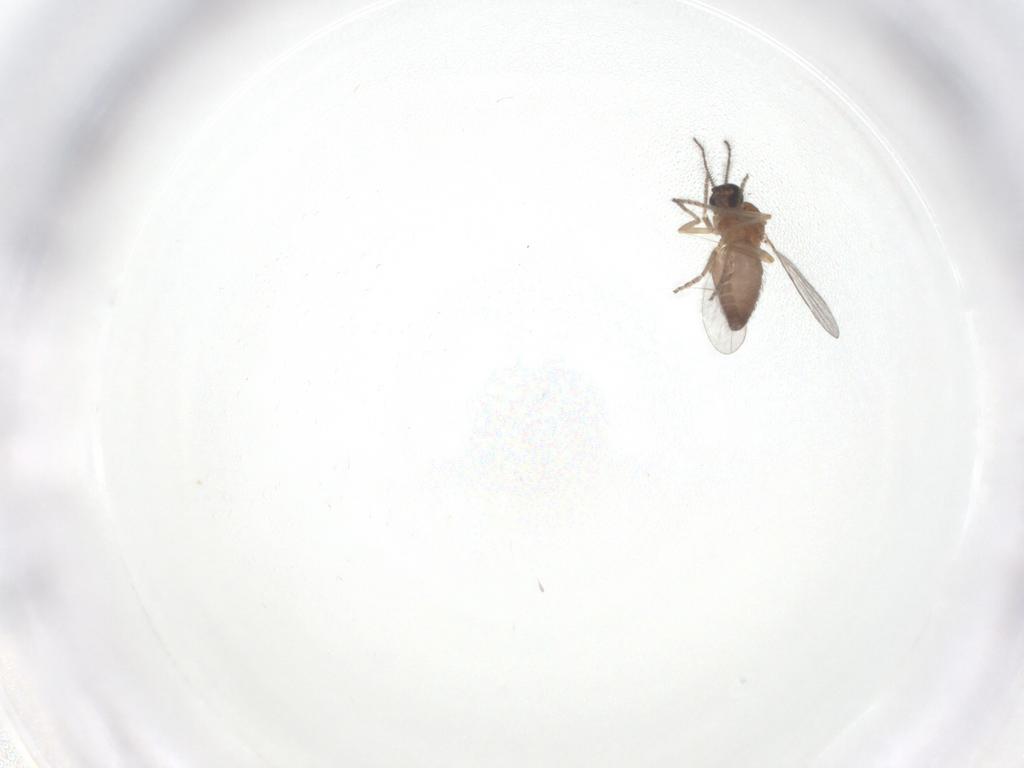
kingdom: Animalia
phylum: Arthropoda
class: Insecta
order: Diptera
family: Ceratopogonidae
